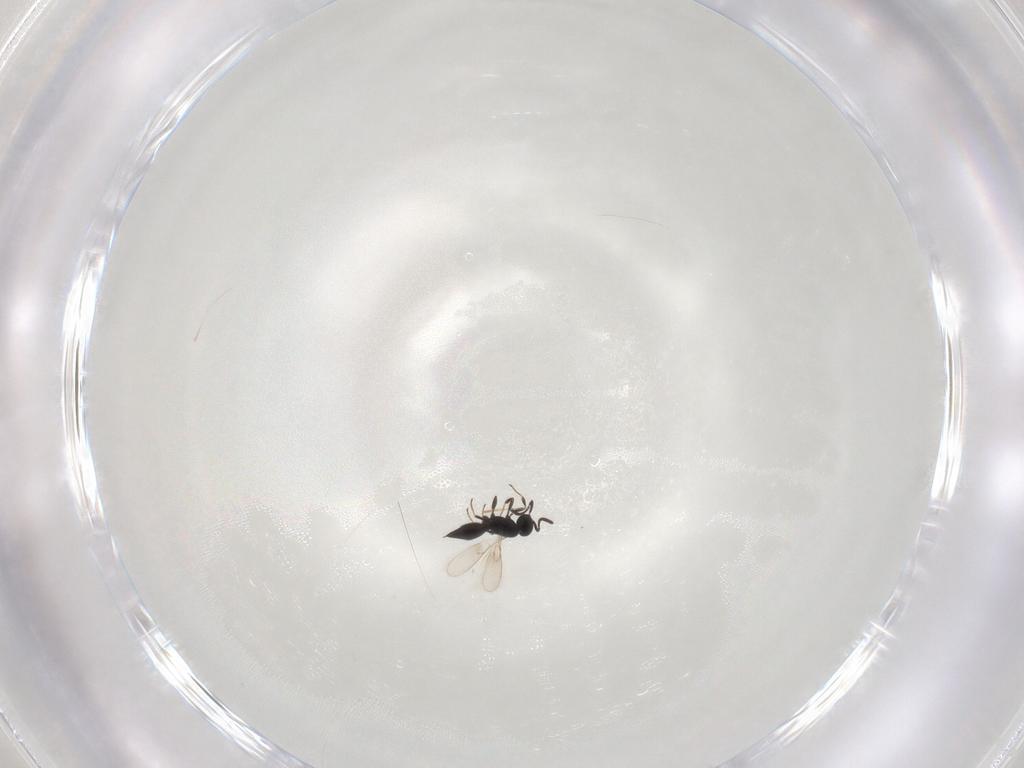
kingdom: Animalia
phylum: Arthropoda
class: Insecta
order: Hymenoptera
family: Scelionidae
